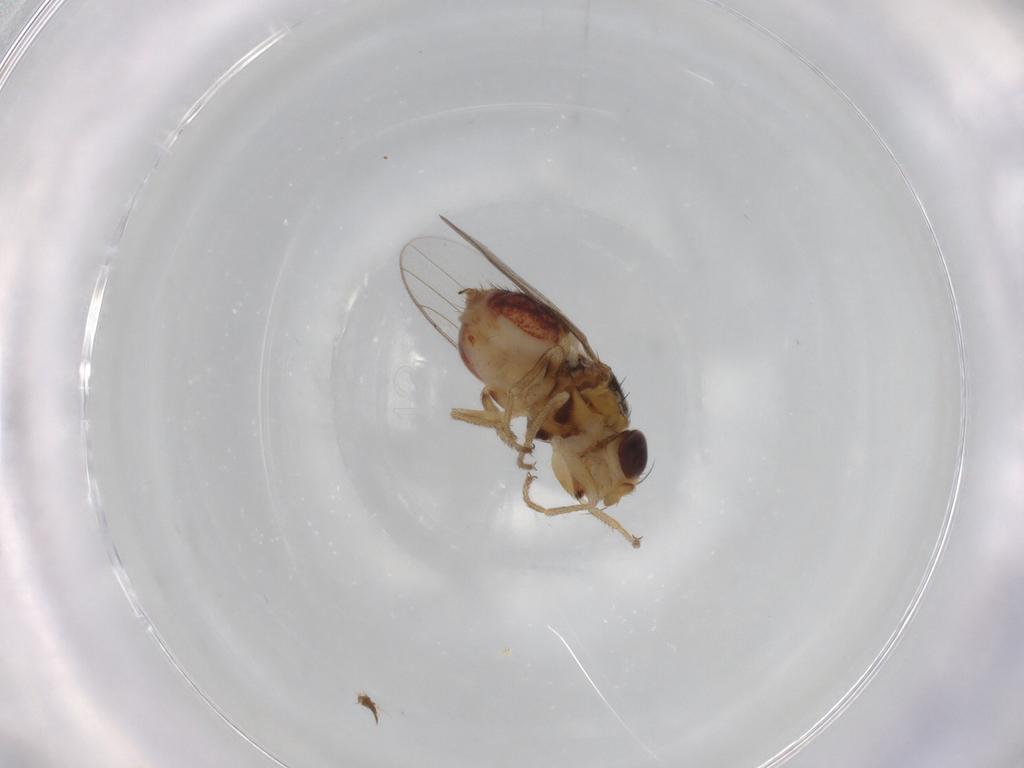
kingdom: Animalia
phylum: Arthropoda
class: Insecta
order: Diptera
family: Chloropidae
